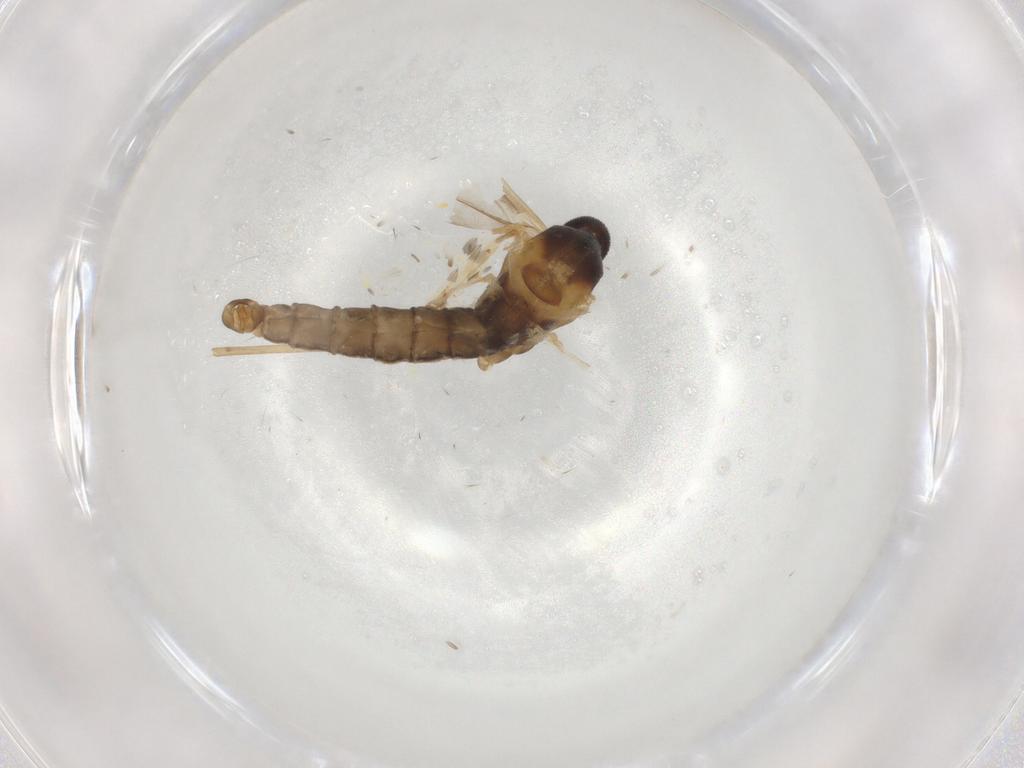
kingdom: Animalia
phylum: Arthropoda
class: Insecta
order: Diptera
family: Cecidomyiidae
